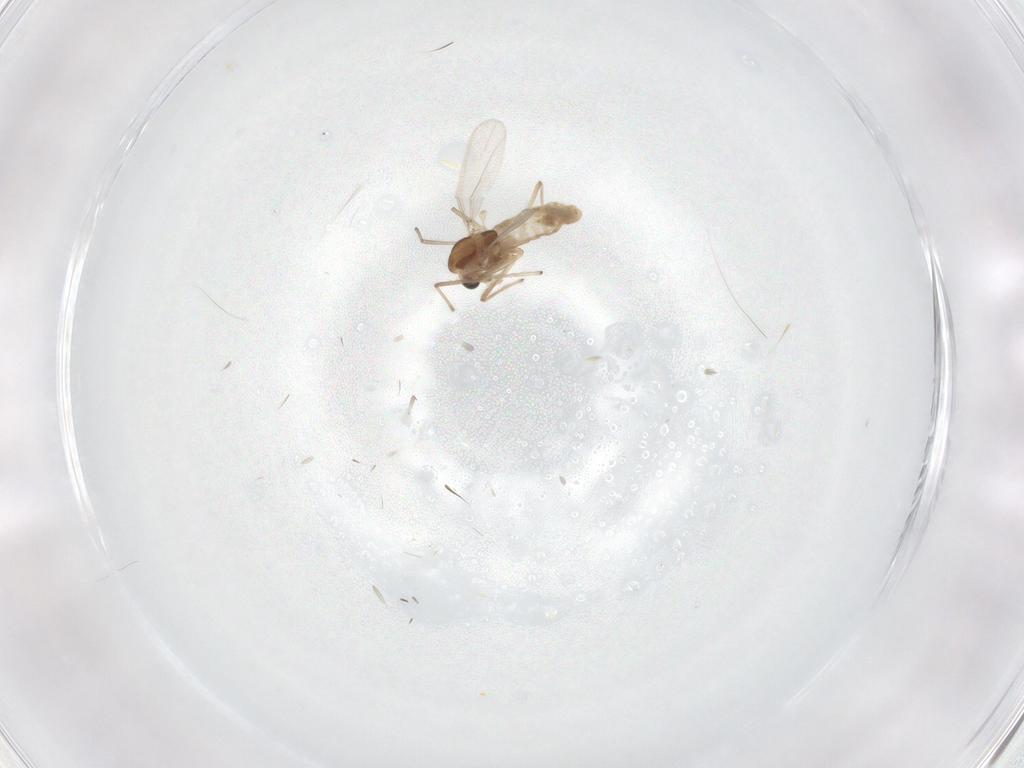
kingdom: Animalia
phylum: Arthropoda
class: Insecta
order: Diptera
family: Chironomidae
